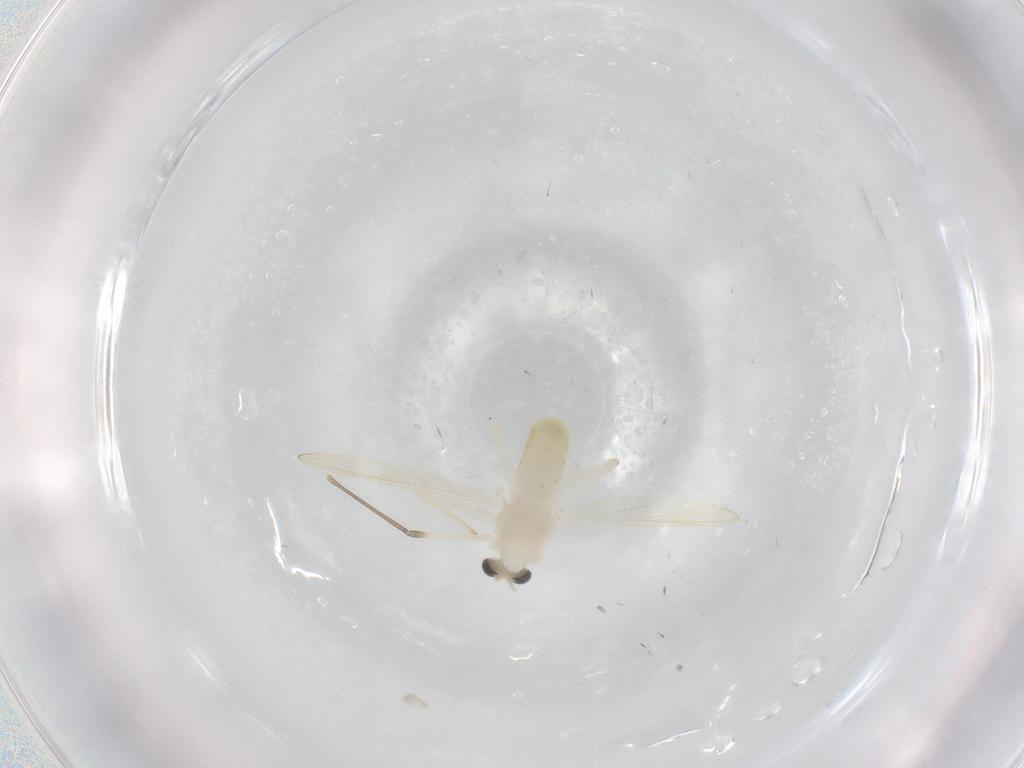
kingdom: Animalia
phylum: Arthropoda
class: Insecta
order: Diptera
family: Chironomidae
